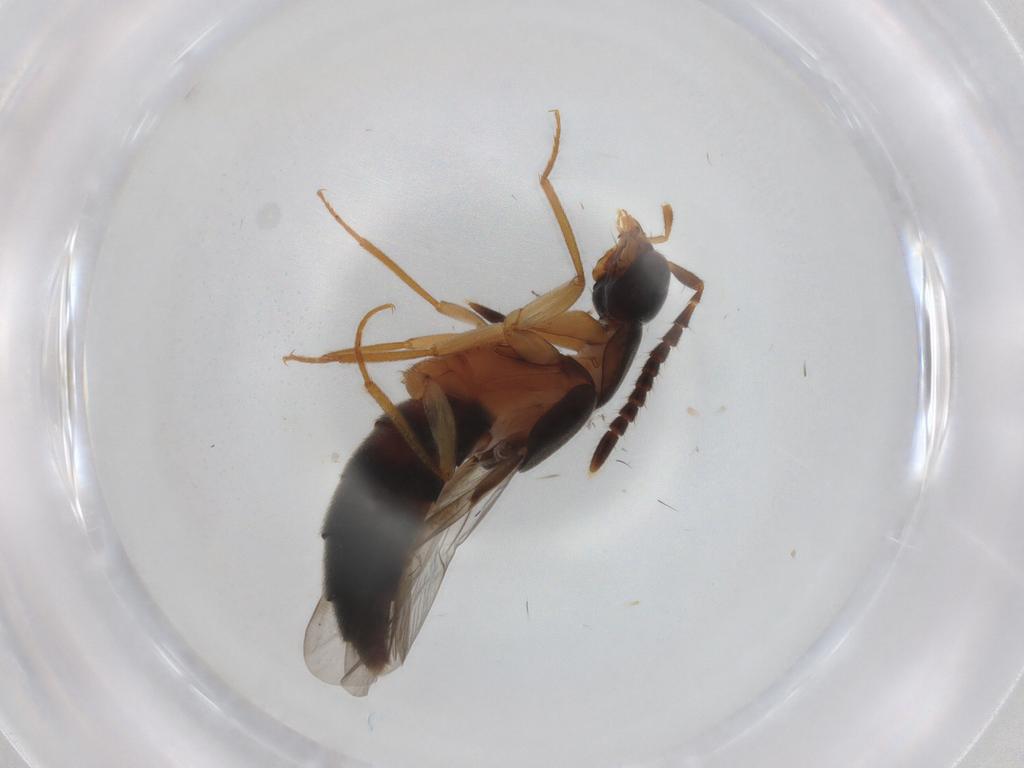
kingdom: Animalia
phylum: Arthropoda
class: Insecta
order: Coleoptera
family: Staphylinidae
